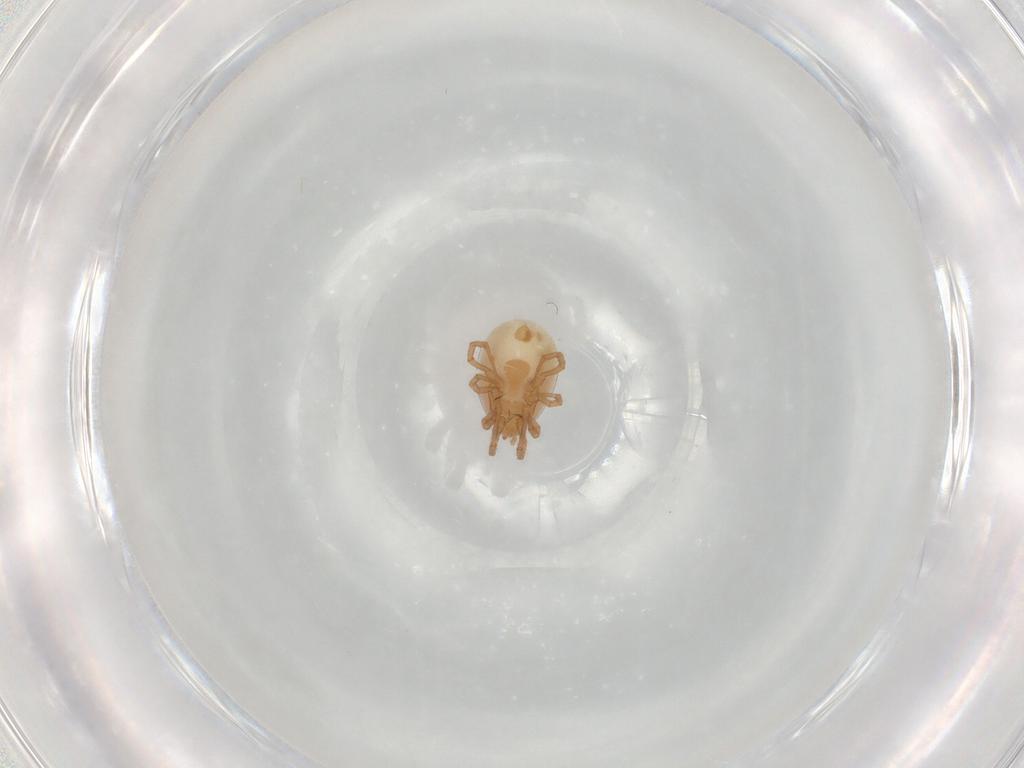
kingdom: Animalia
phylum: Arthropoda
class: Arachnida
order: Mesostigmata
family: Parasitidae
